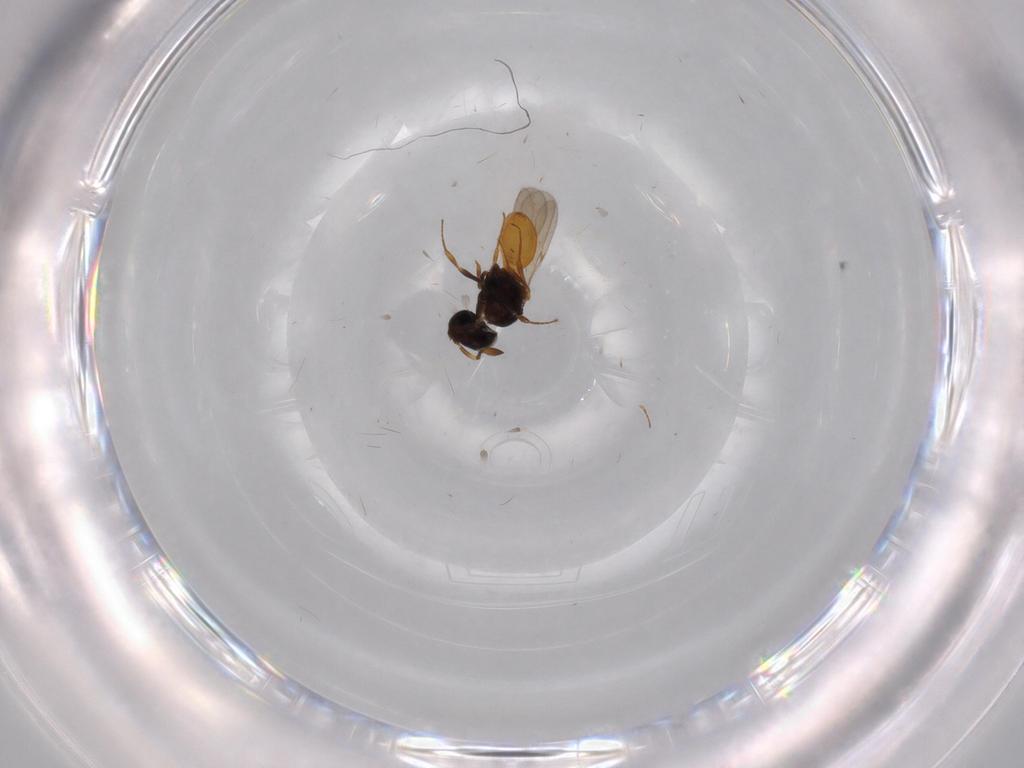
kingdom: Animalia
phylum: Arthropoda
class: Insecta
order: Hymenoptera
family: Scelionidae
